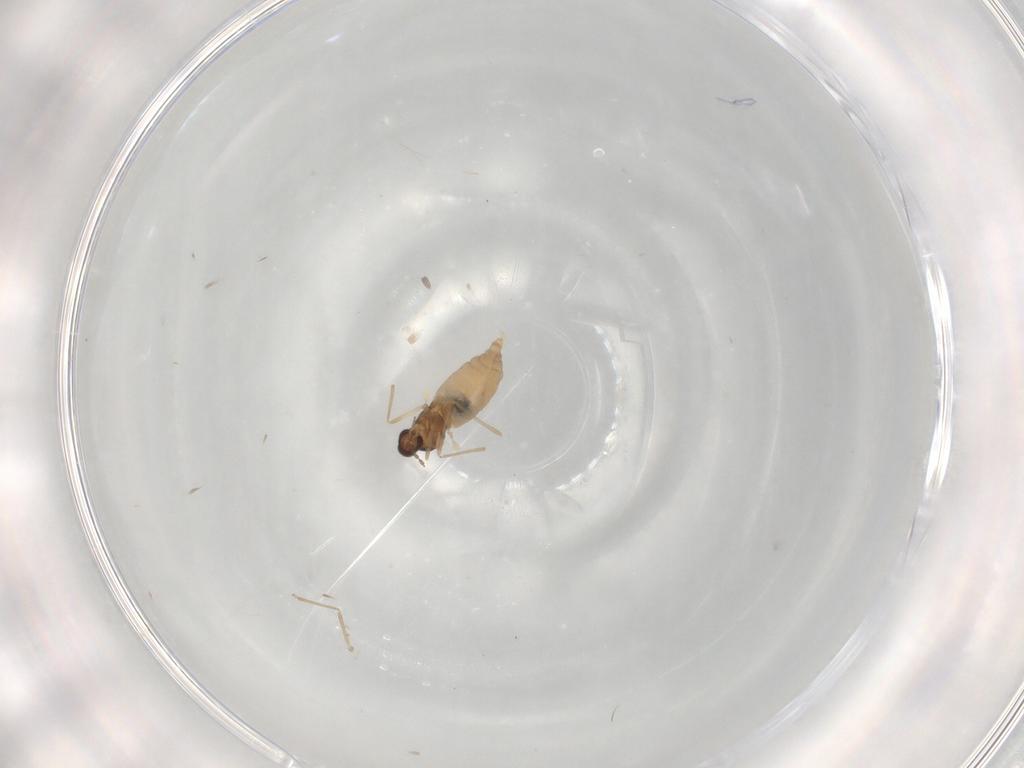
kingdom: Animalia
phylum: Arthropoda
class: Insecta
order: Diptera
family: Cecidomyiidae
